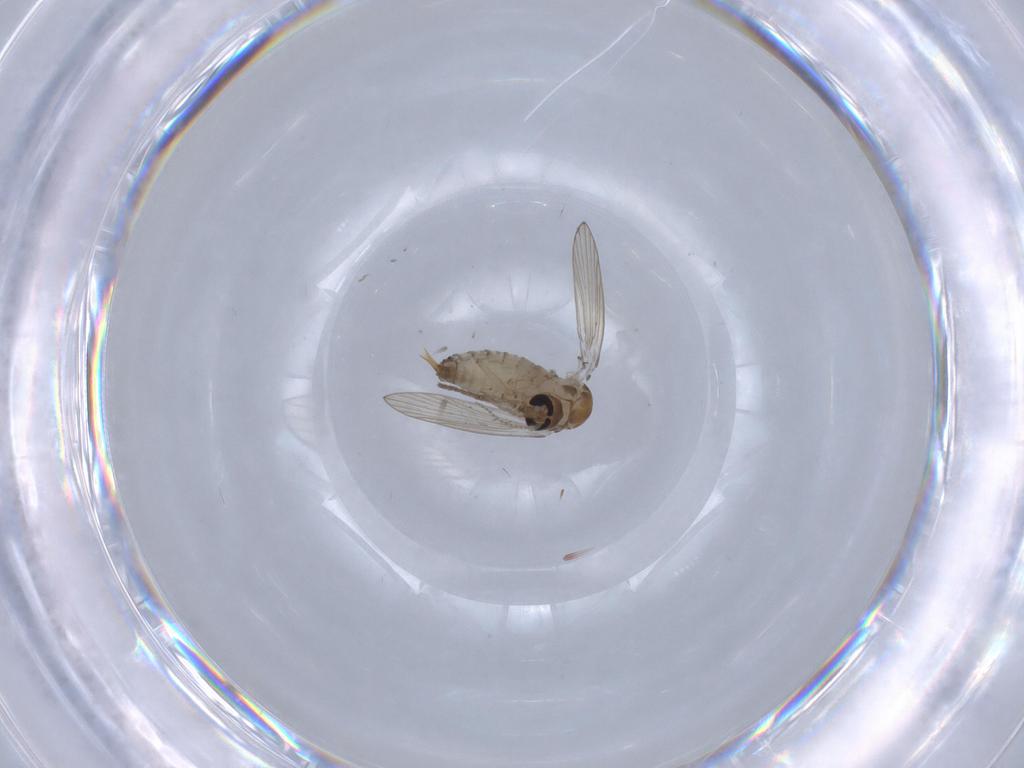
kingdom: Animalia
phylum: Arthropoda
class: Insecta
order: Diptera
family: Psychodidae
